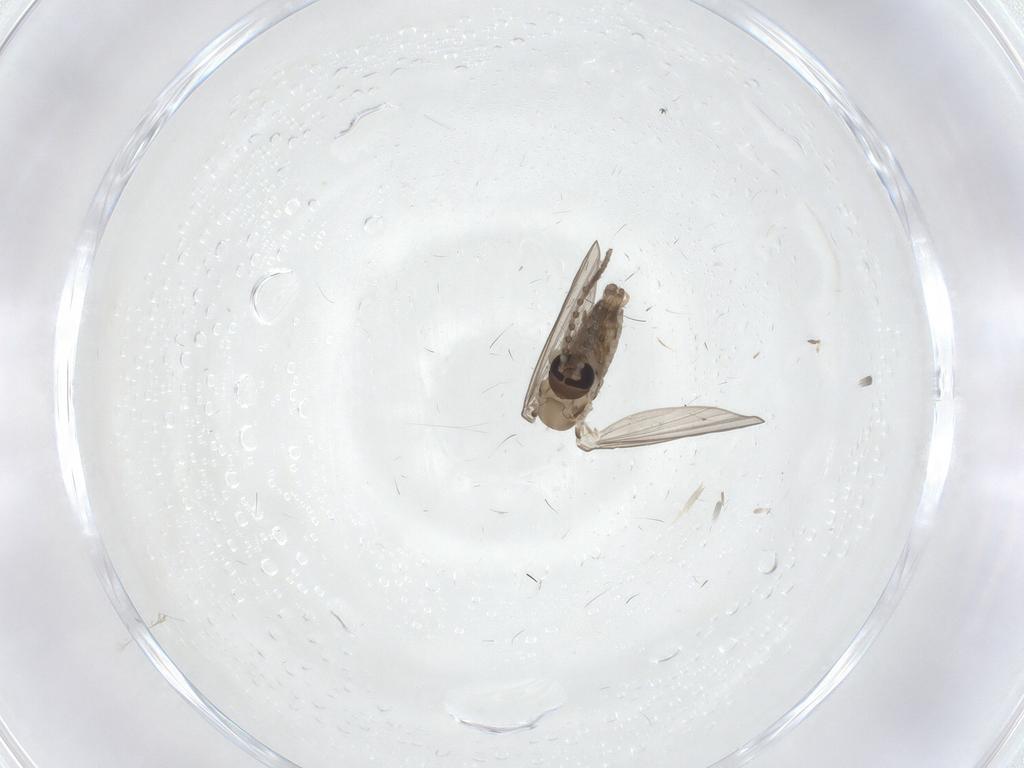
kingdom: Animalia
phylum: Arthropoda
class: Insecta
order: Diptera
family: Psychodidae
